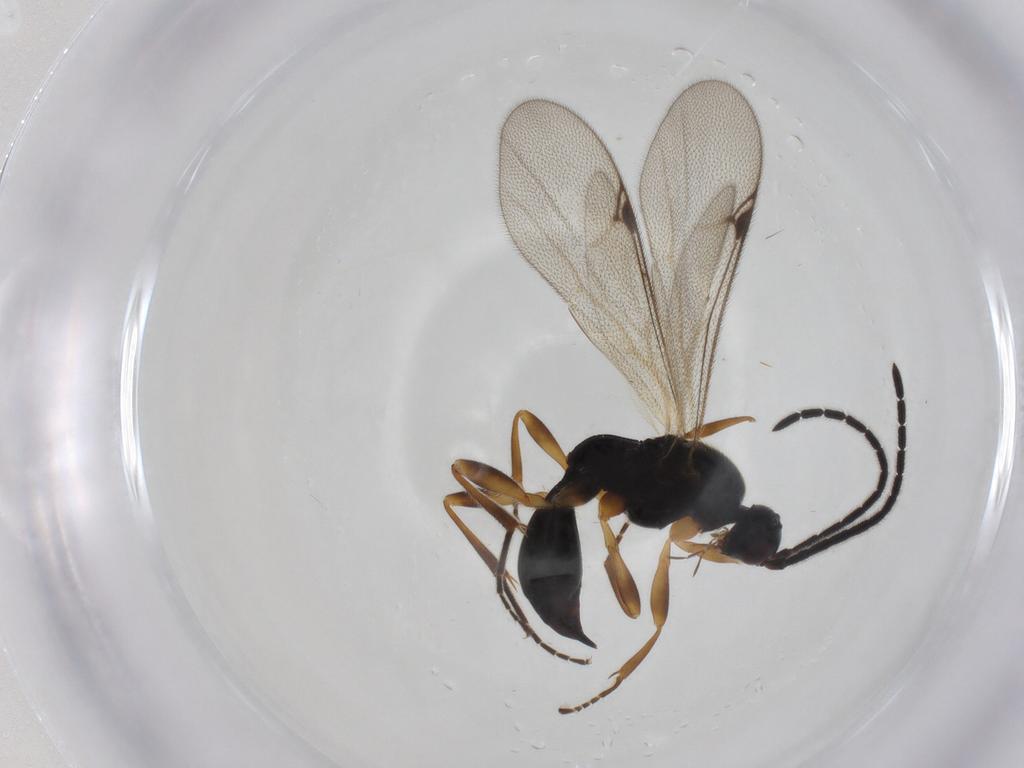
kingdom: Animalia
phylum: Arthropoda
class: Insecta
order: Hymenoptera
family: Proctotrupidae
